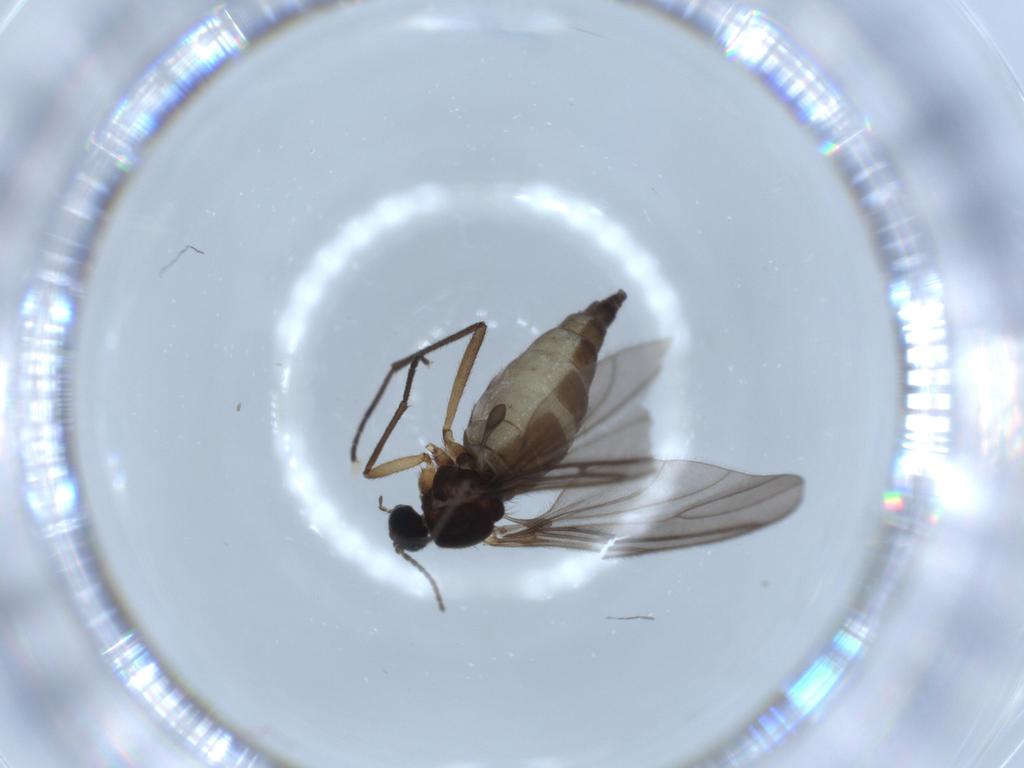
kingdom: Animalia
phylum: Arthropoda
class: Insecta
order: Diptera
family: Sciaridae
